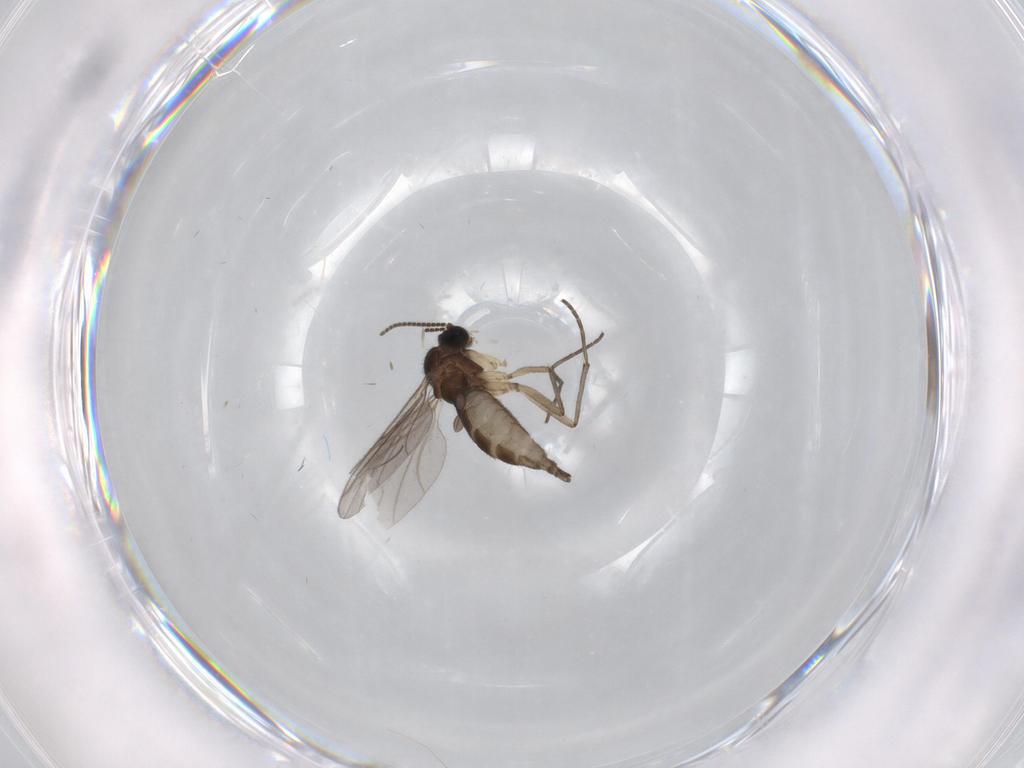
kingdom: Animalia
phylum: Arthropoda
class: Insecta
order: Diptera
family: Sciaridae
